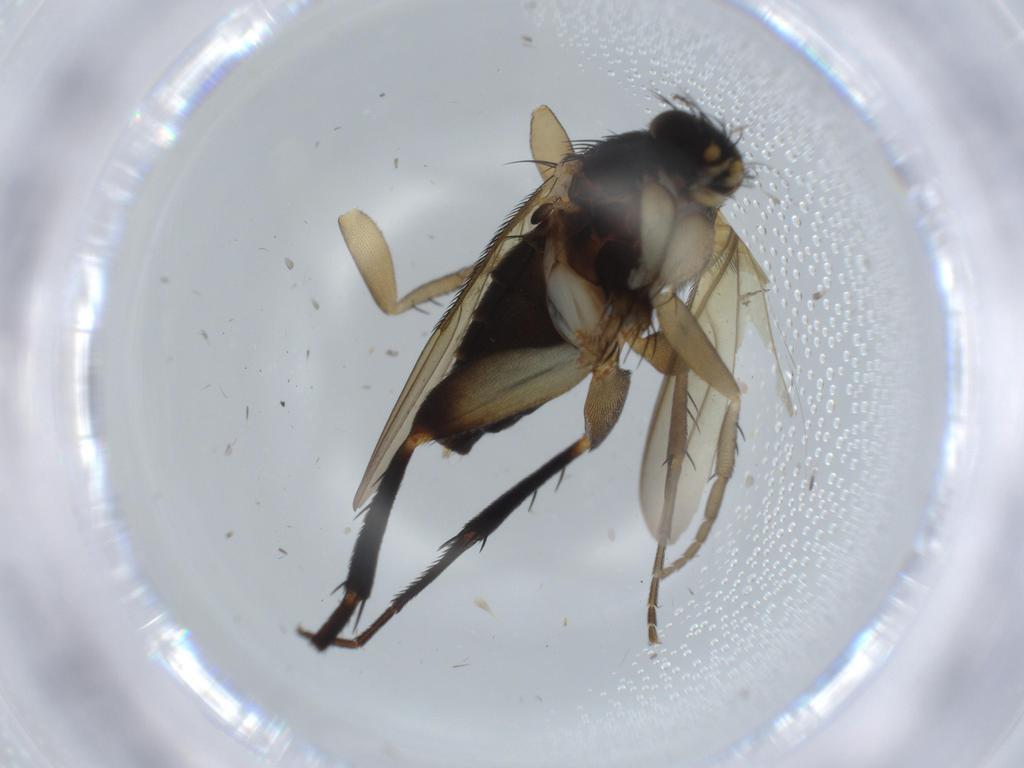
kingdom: Animalia
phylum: Arthropoda
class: Insecta
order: Diptera
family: Phoridae
